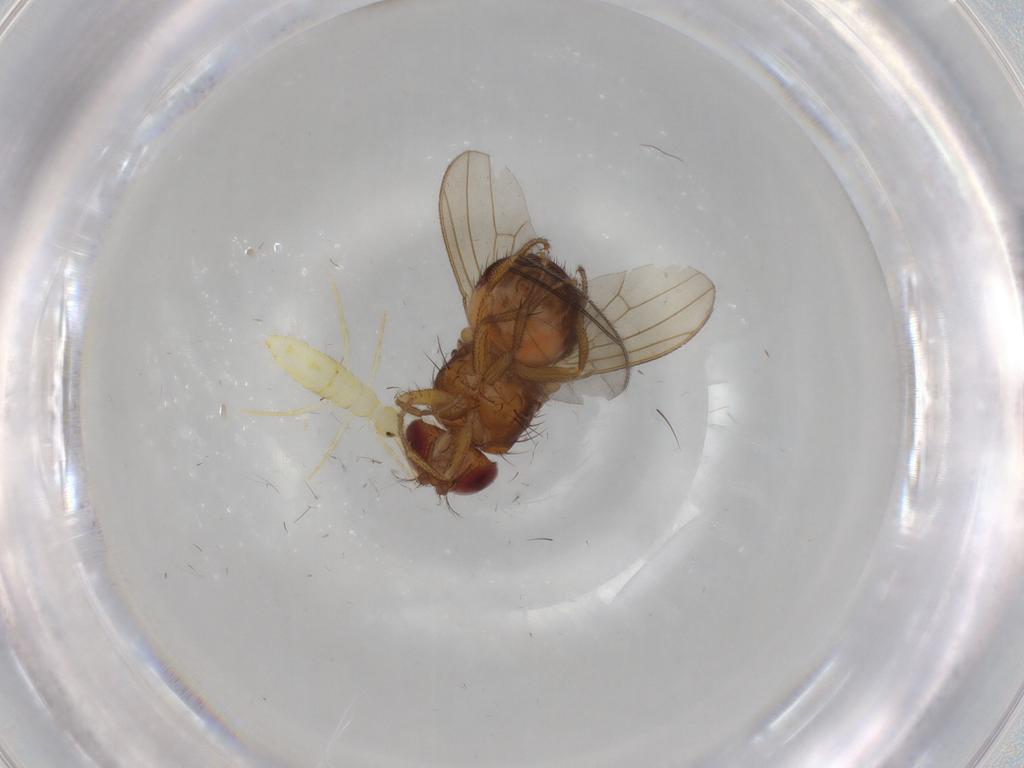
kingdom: Animalia
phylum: Arthropoda
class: Insecta
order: Diptera
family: Drosophilidae
